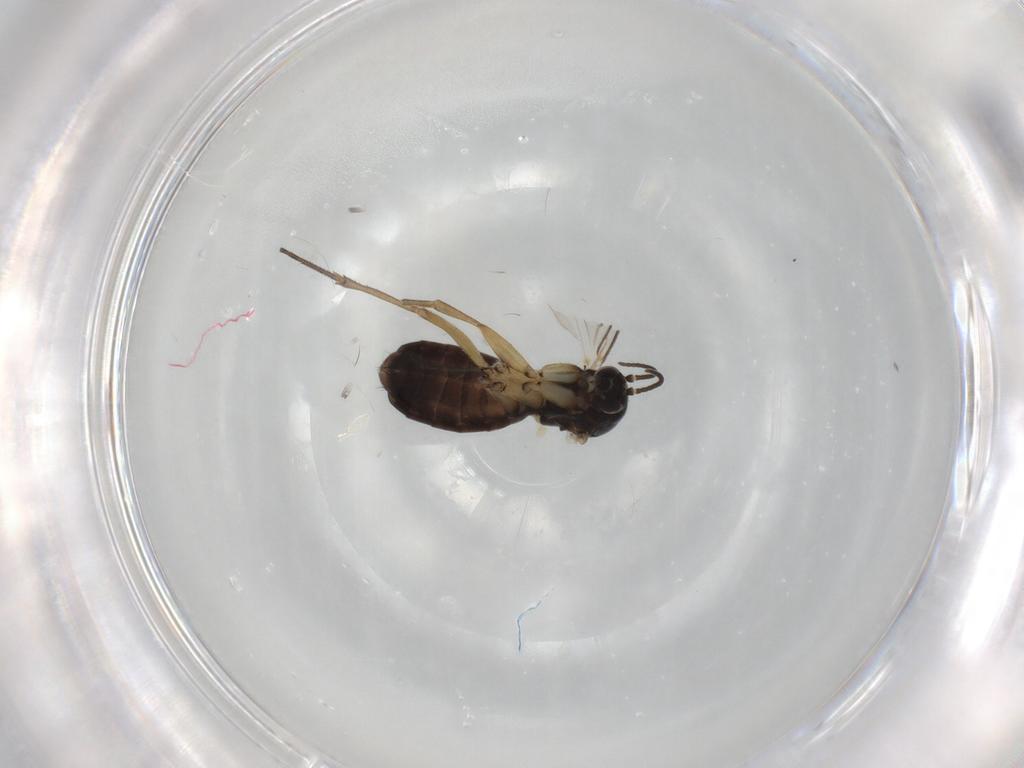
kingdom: Animalia
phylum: Arthropoda
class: Insecta
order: Diptera
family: Mycetophilidae
